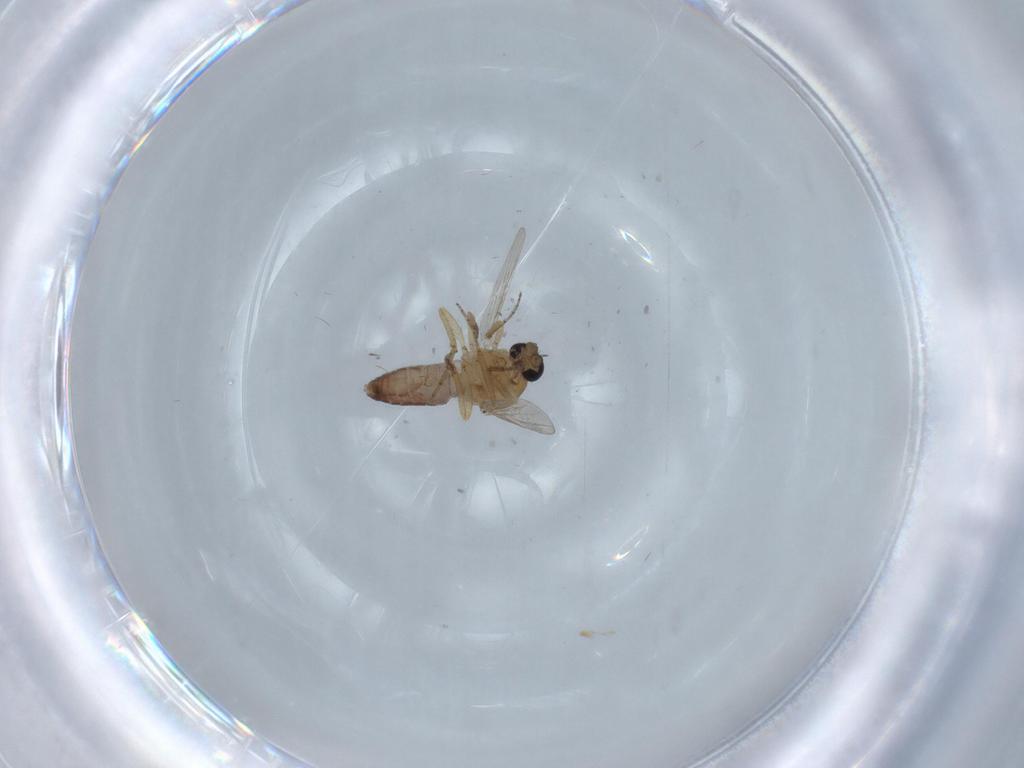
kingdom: Animalia
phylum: Arthropoda
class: Insecta
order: Diptera
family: Ceratopogonidae
